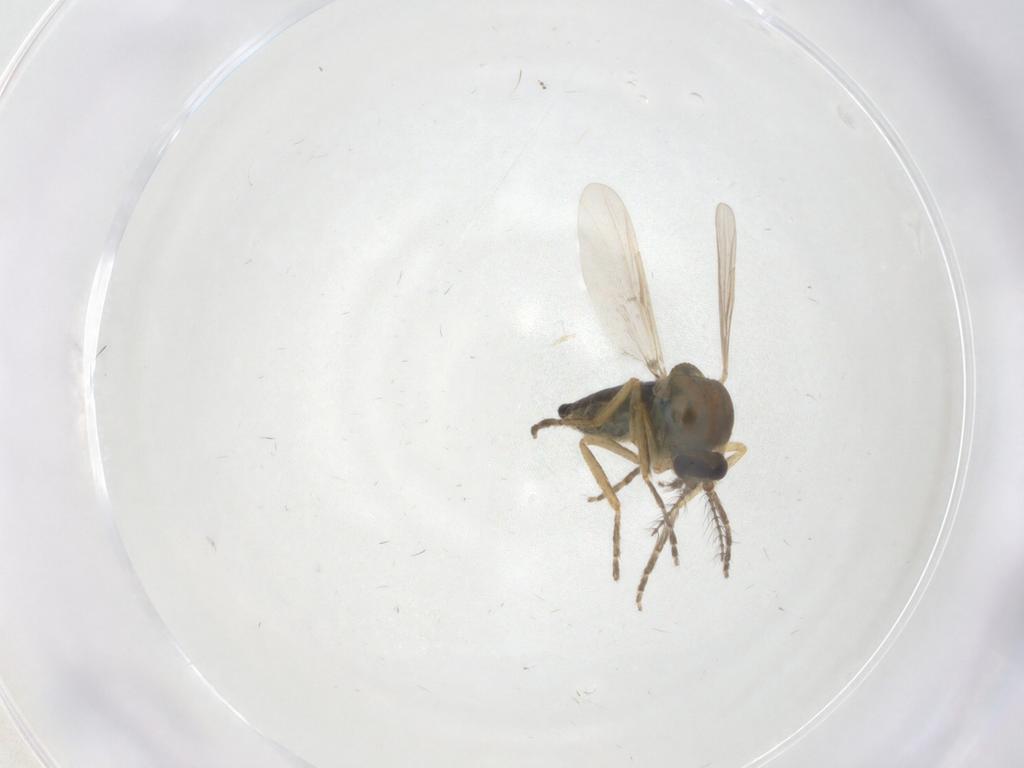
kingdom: Animalia
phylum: Arthropoda
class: Insecta
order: Diptera
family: Ceratopogonidae
